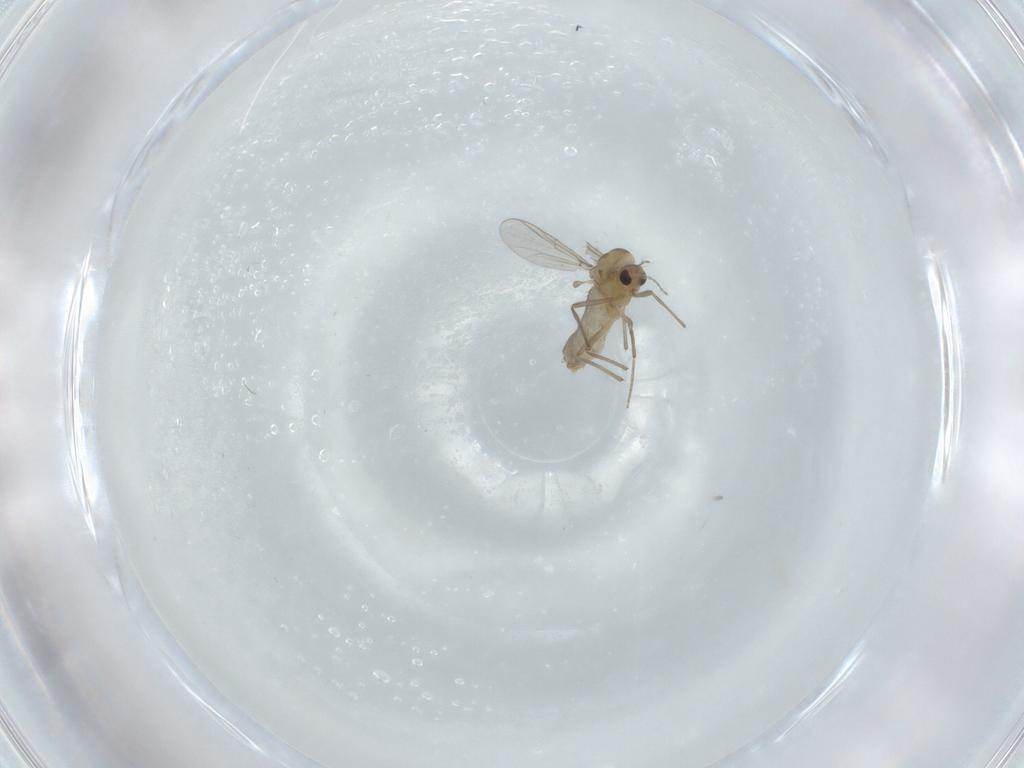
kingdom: Animalia
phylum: Arthropoda
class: Insecta
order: Diptera
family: Chironomidae
